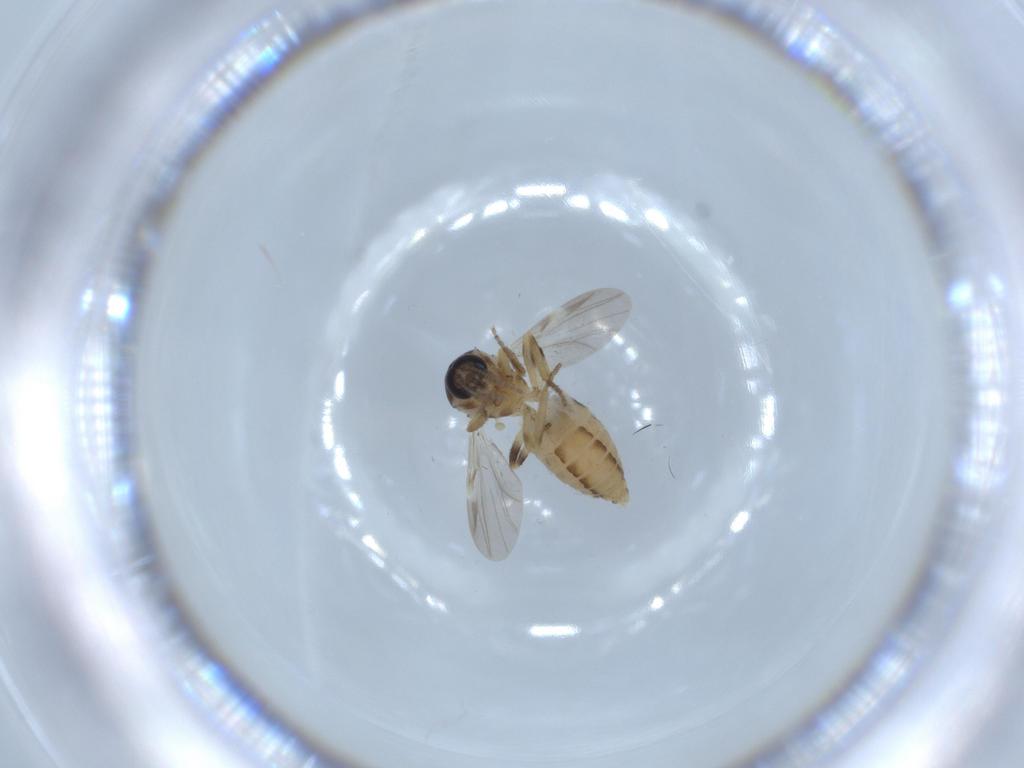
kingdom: Animalia
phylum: Arthropoda
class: Insecta
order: Diptera
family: Ceratopogonidae
